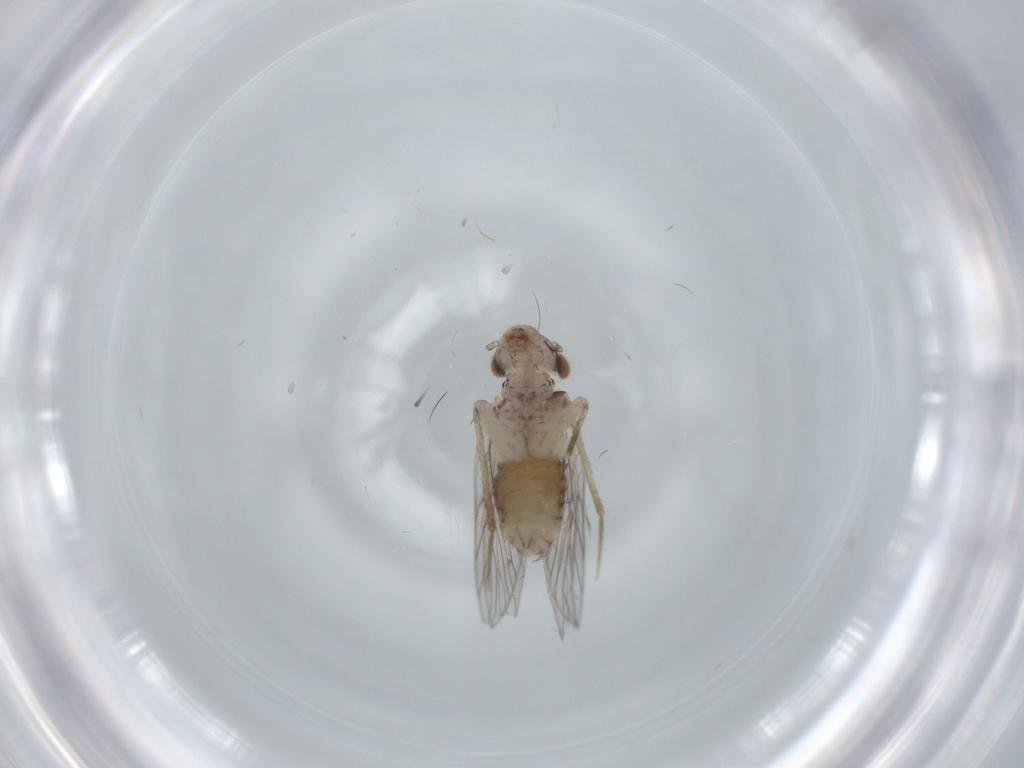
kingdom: Animalia
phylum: Arthropoda
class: Insecta
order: Psocodea
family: Lepidopsocidae
